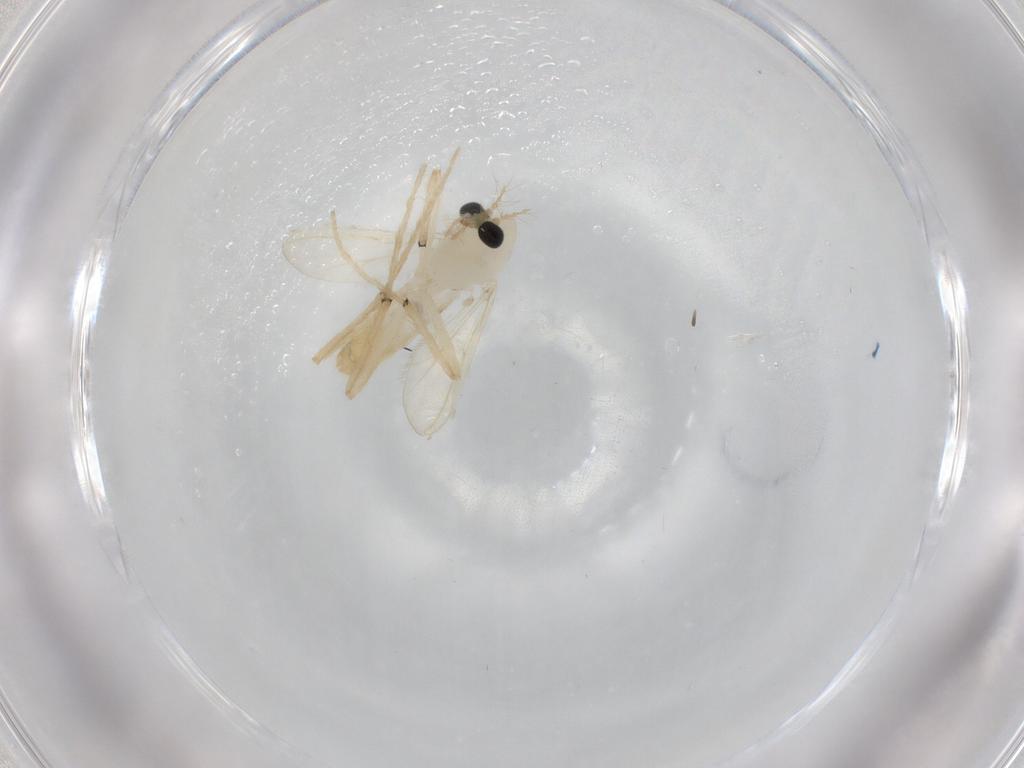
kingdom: Animalia
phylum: Arthropoda
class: Insecta
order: Diptera
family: Chironomidae
